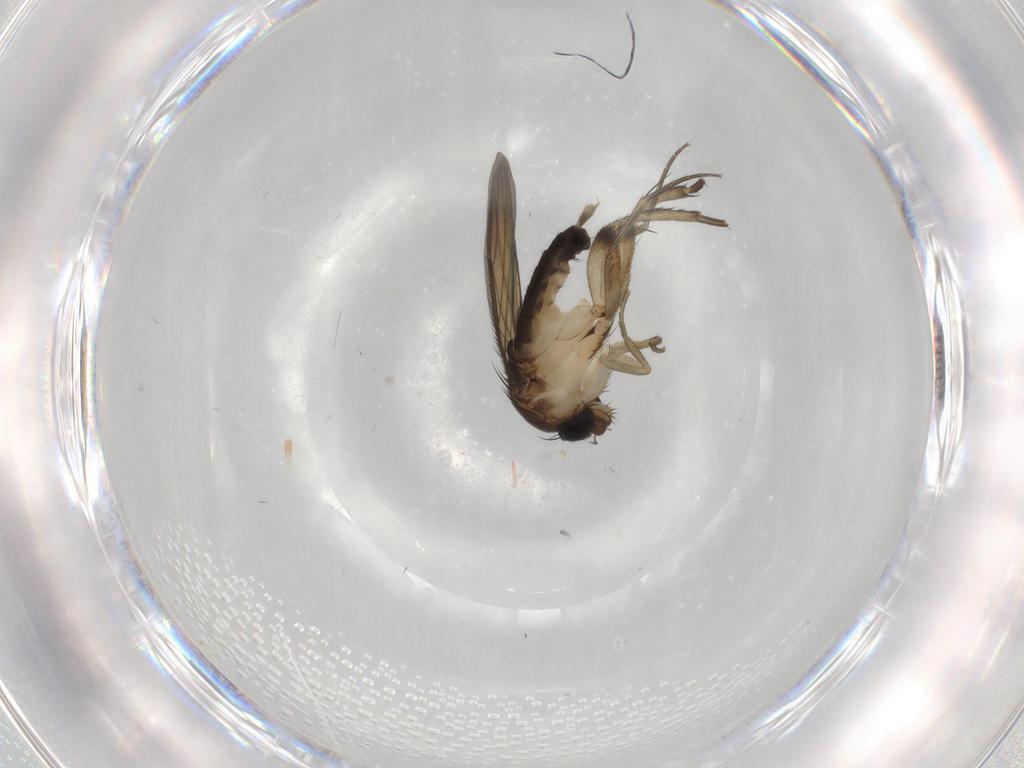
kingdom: Animalia
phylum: Arthropoda
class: Insecta
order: Diptera
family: Phoridae
